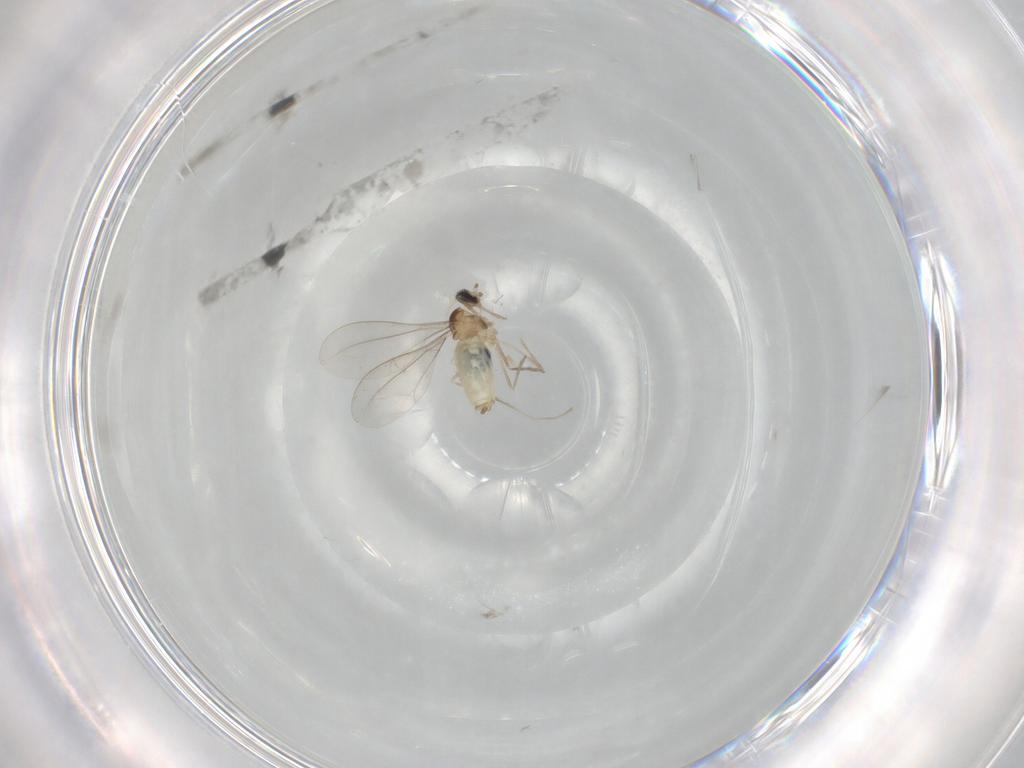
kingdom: Animalia
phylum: Arthropoda
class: Insecta
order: Diptera
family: Cecidomyiidae
